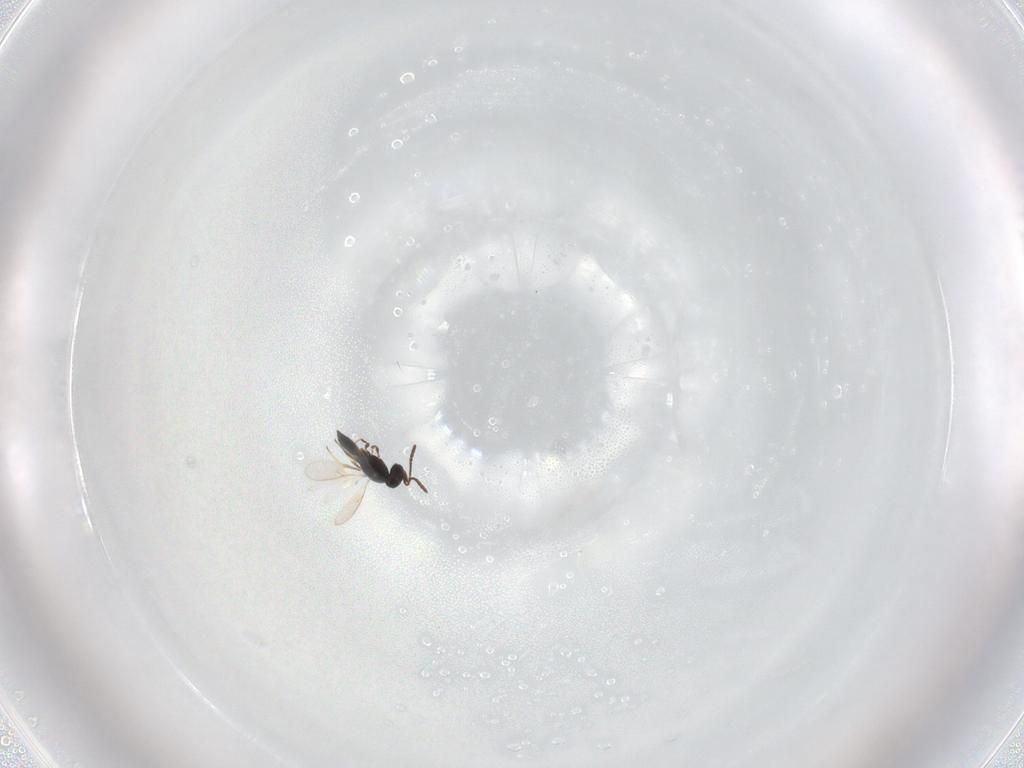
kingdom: Animalia
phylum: Arthropoda
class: Insecta
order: Hymenoptera
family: Scelionidae
